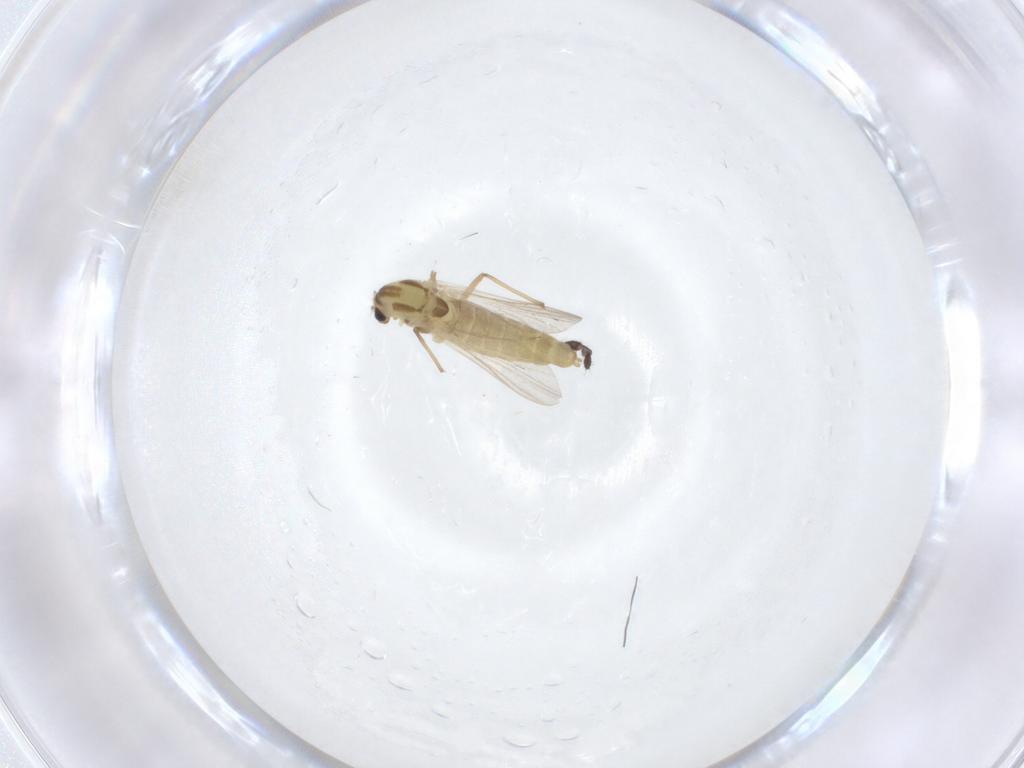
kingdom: Animalia
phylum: Arthropoda
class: Insecta
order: Diptera
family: Chironomidae
